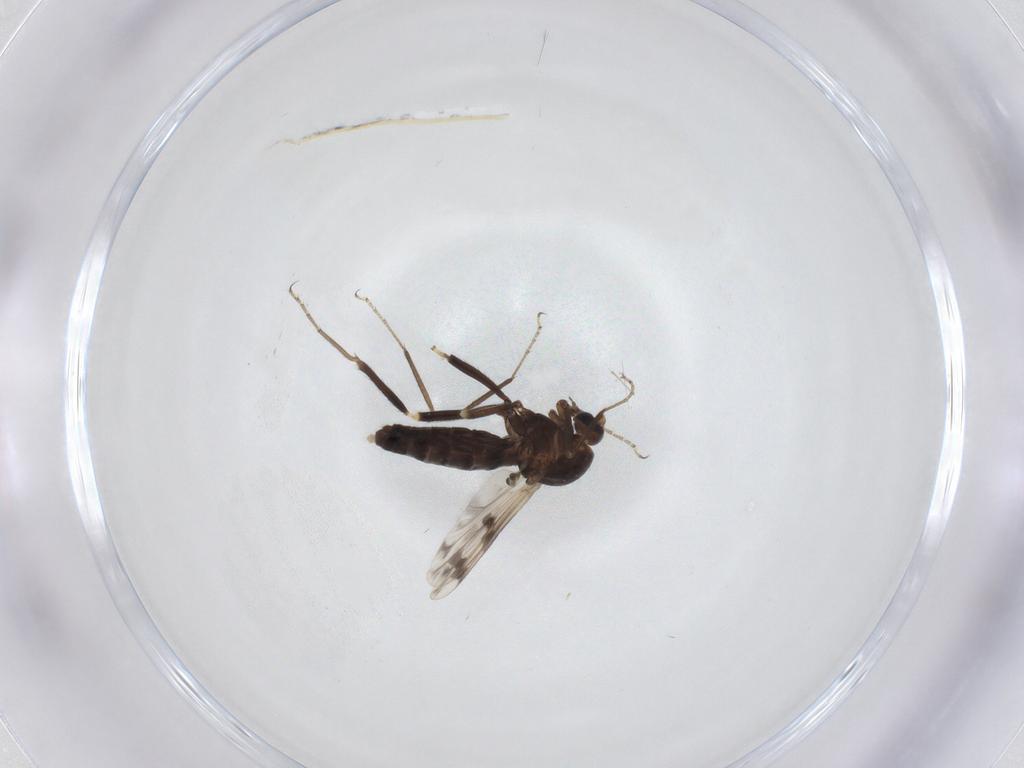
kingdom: Animalia
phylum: Arthropoda
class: Insecta
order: Diptera
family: Ceratopogonidae
